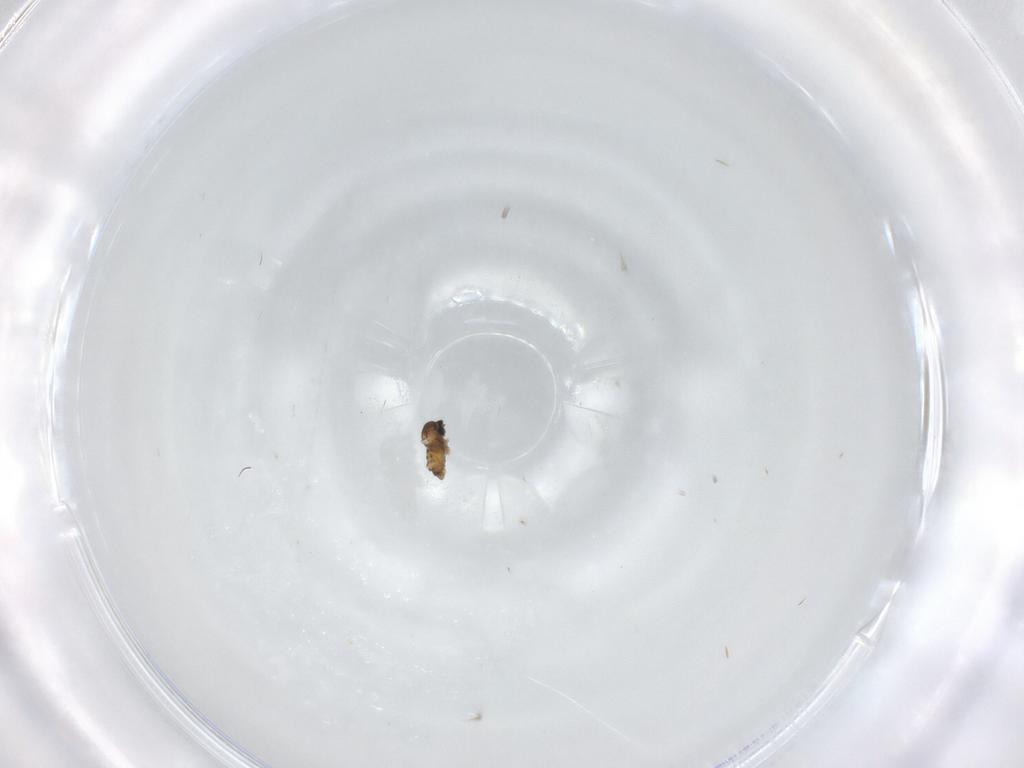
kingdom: Animalia
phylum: Arthropoda
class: Insecta
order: Diptera
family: Cecidomyiidae
